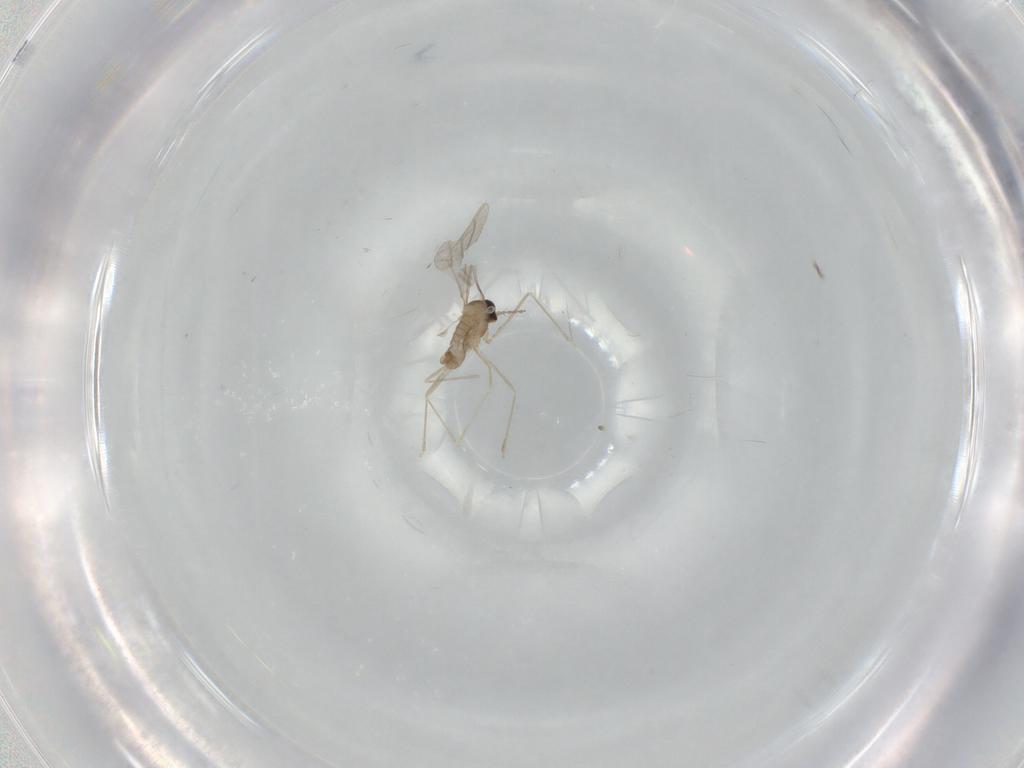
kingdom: Animalia
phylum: Arthropoda
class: Insecta
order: Diptera
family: Cecidomyiidae
